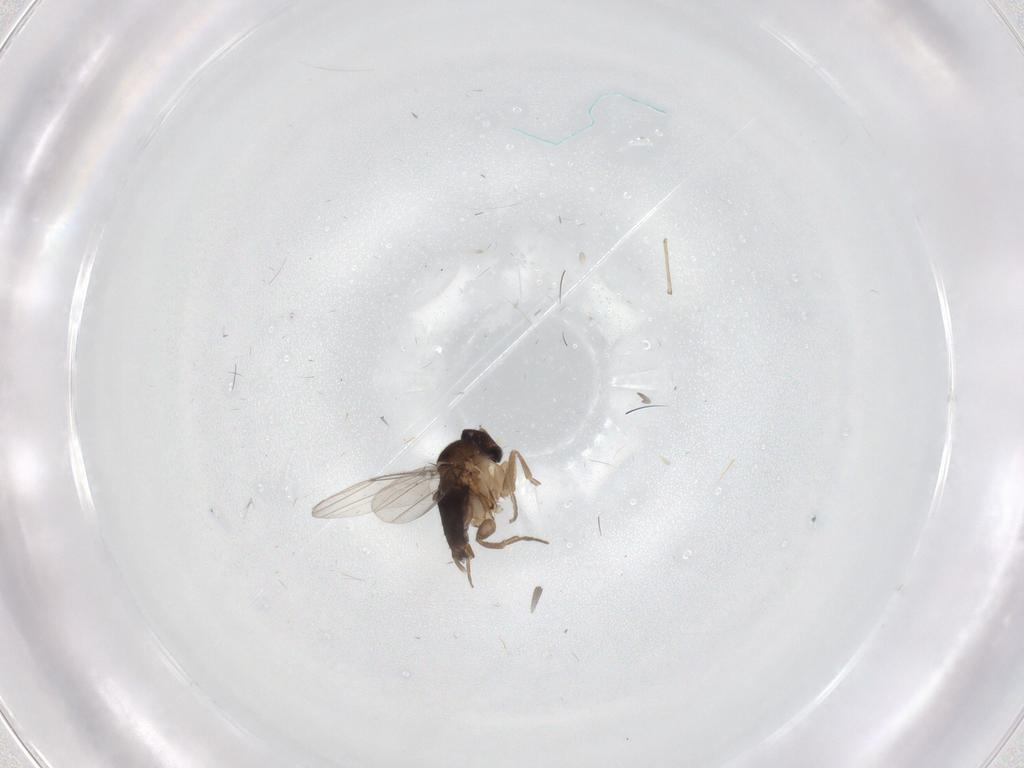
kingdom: Animalia
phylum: Arthropoda
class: Insecta
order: Diptera
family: Phoridae
